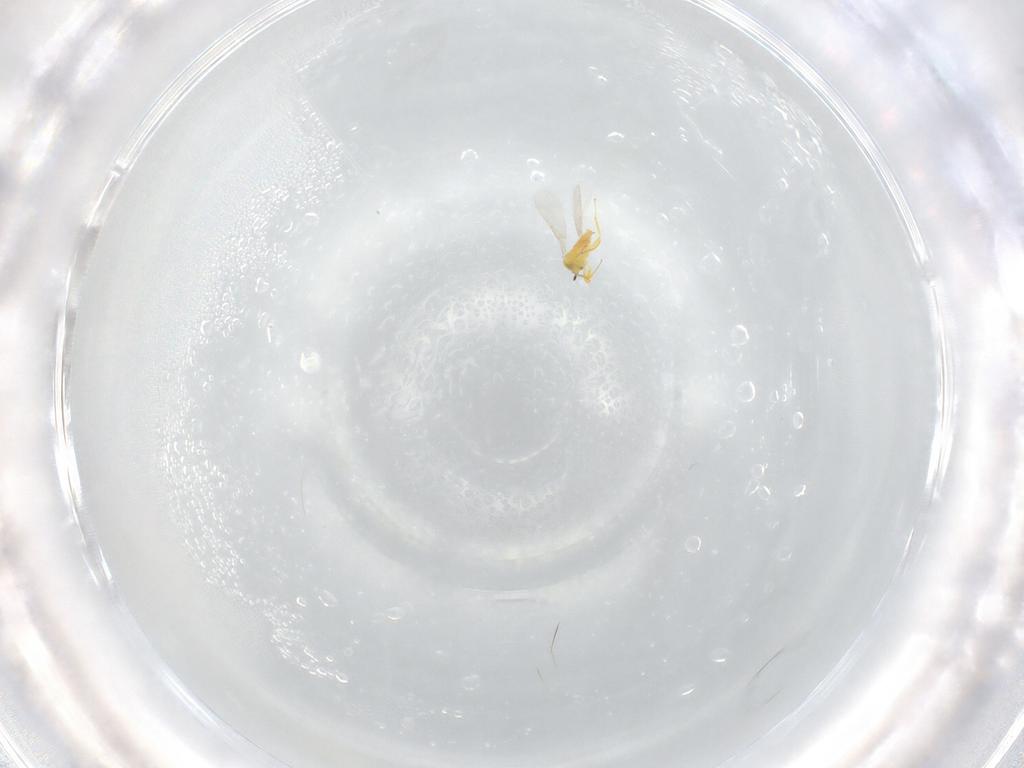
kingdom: Animalia
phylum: Arthropoda
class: Insecta
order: Hymenoptera
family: Aphelinidae
